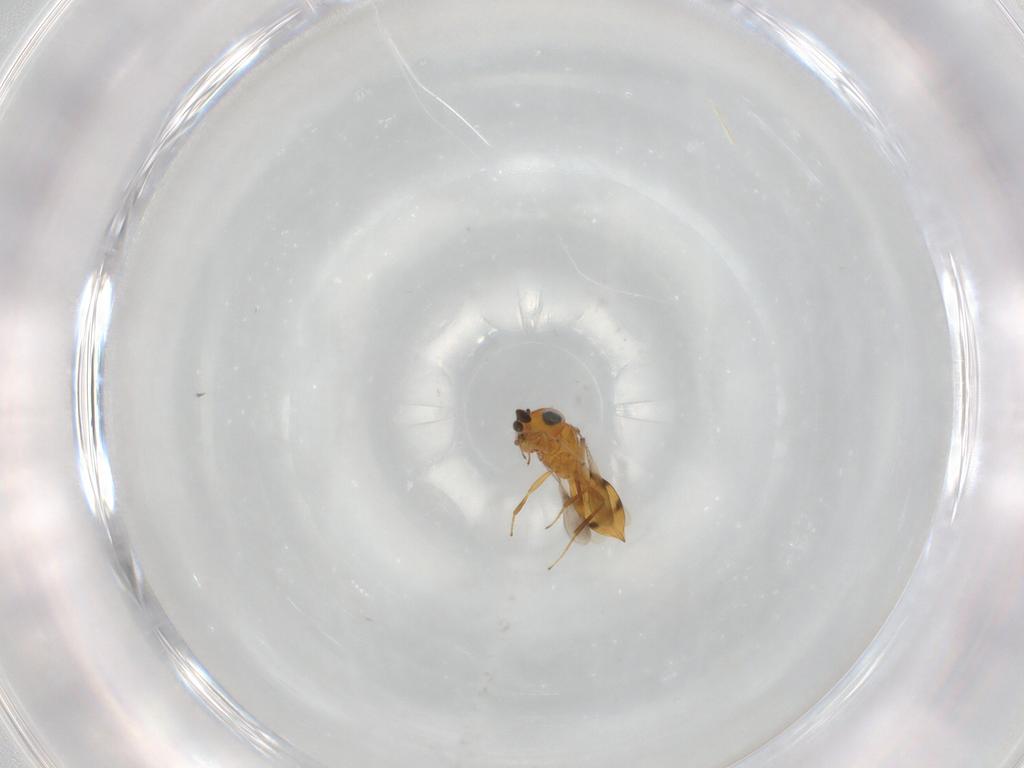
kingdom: Animalia
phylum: Arthropoda
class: Insecta
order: Hymenoptera
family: Scelionidae
